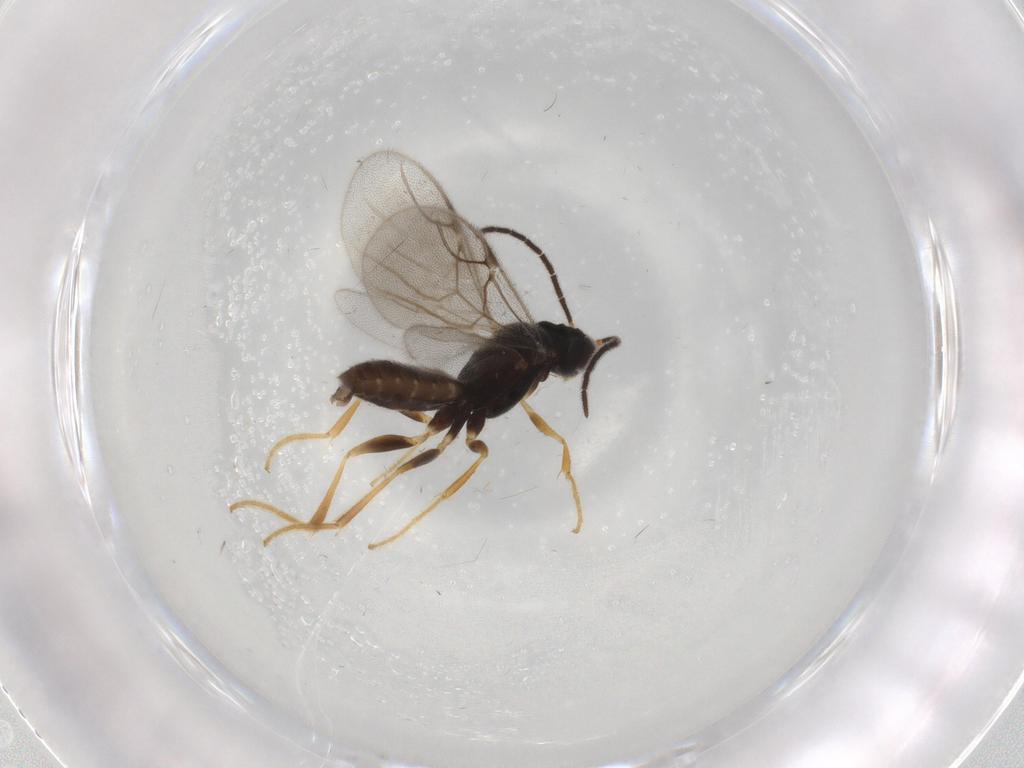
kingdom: Animalia
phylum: Arthropoda
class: Insecta
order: Hymenoptera
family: Dryinidae
